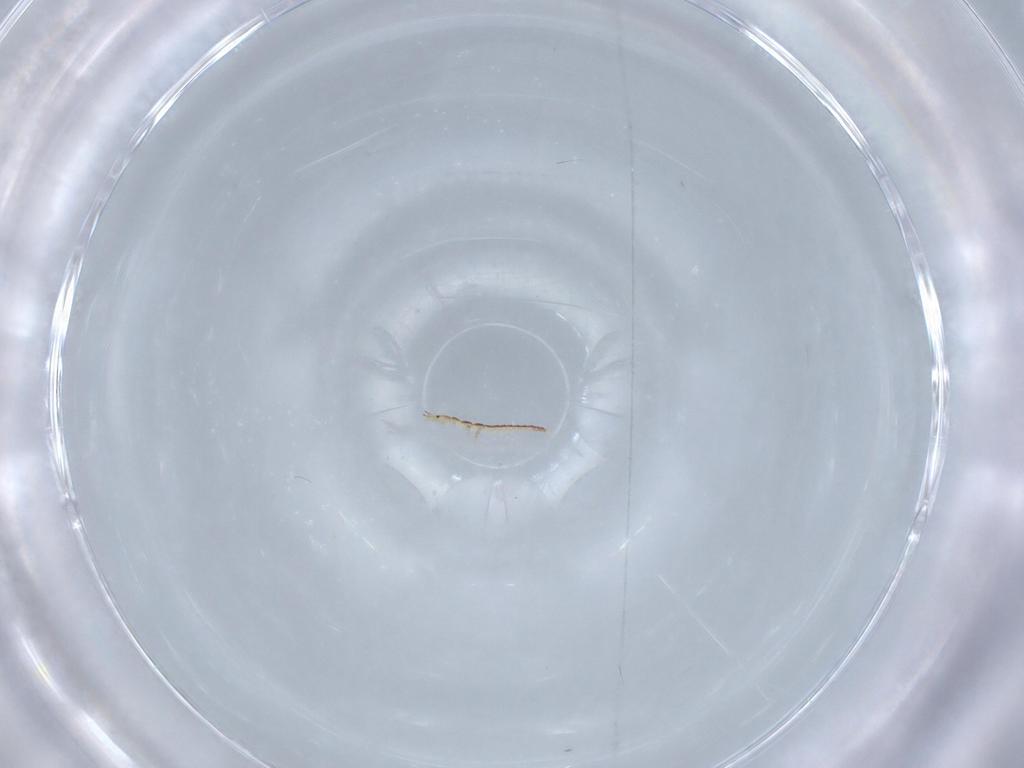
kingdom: Animalia
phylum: Arthropoda
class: Insecta
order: Neuroptera
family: Mantispidae
